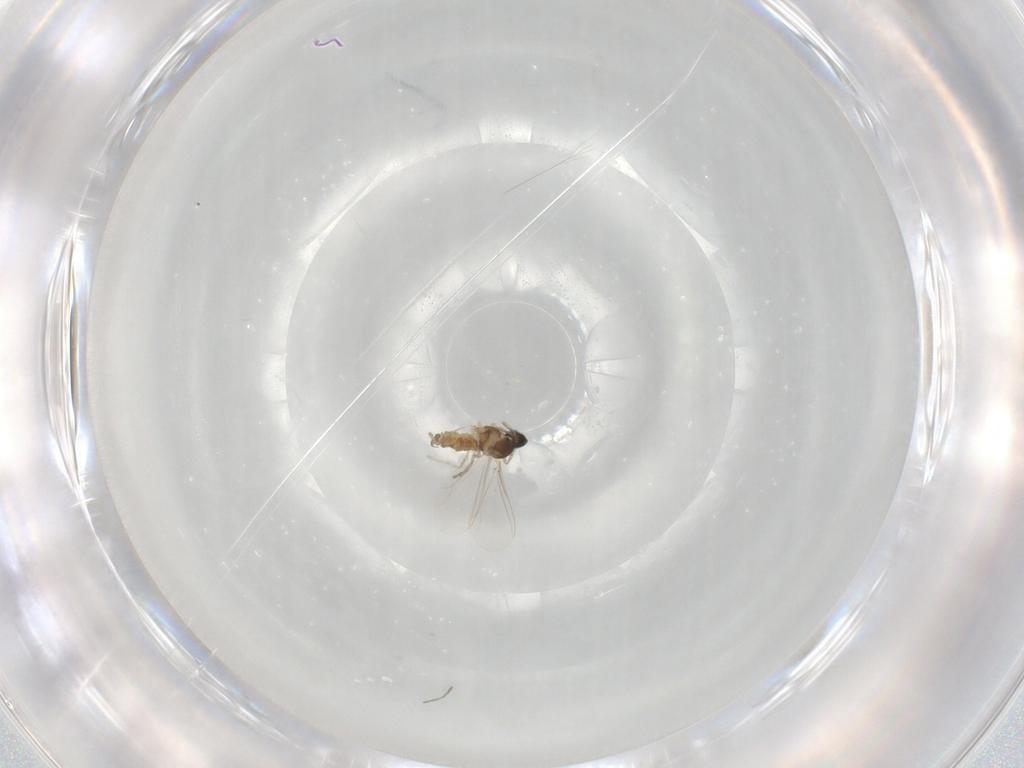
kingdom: Animalia
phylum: Arthropoda
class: Insecta
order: Diptera
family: Cecidomyiidae
